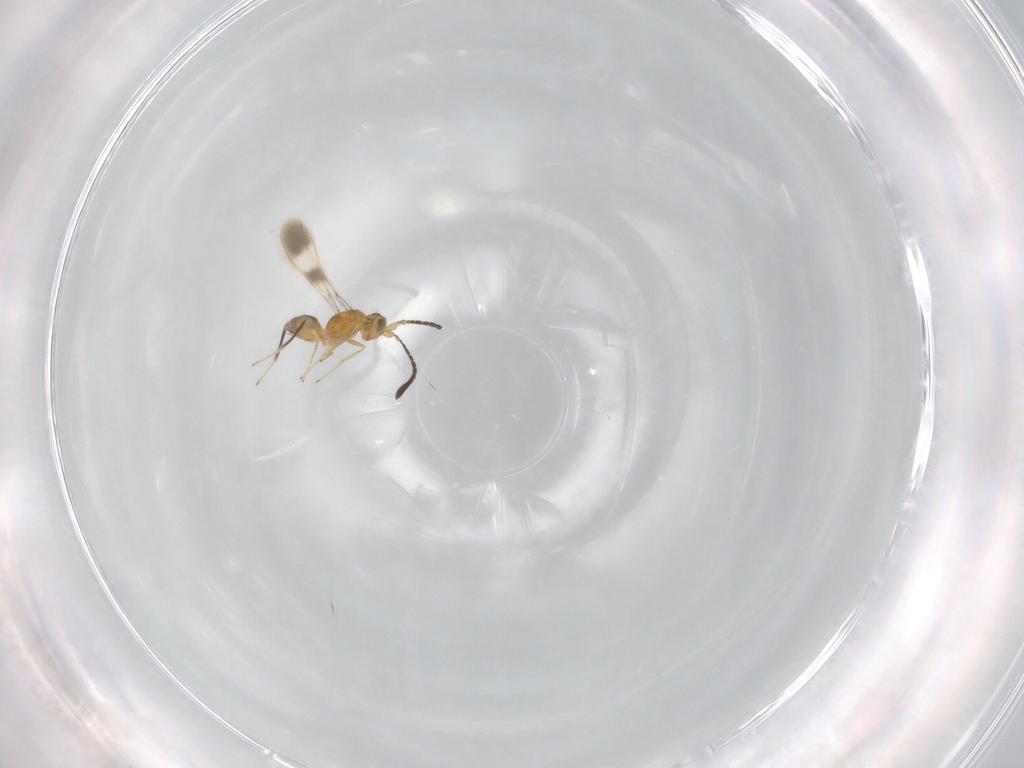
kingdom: Animalia
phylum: Arthropoda
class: Insecta
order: Hymenoptera
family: Mymaridae
